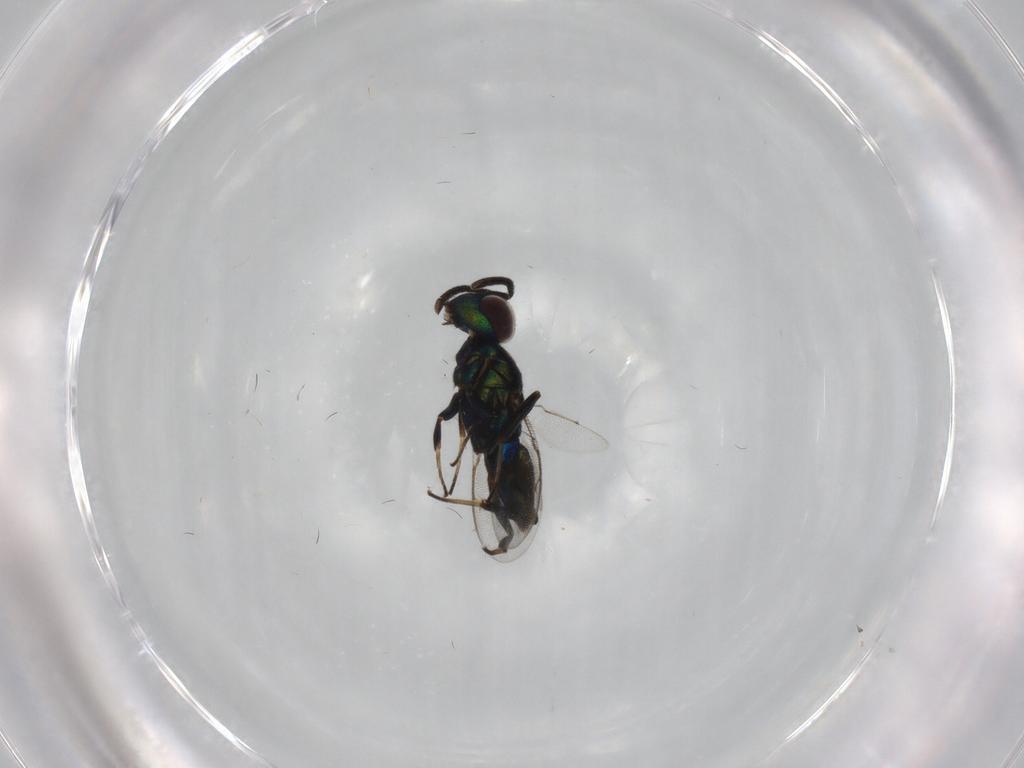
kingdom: Animalia
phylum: Arthropoda
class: Insecta
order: Hymenoptera
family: Eupelmidae
